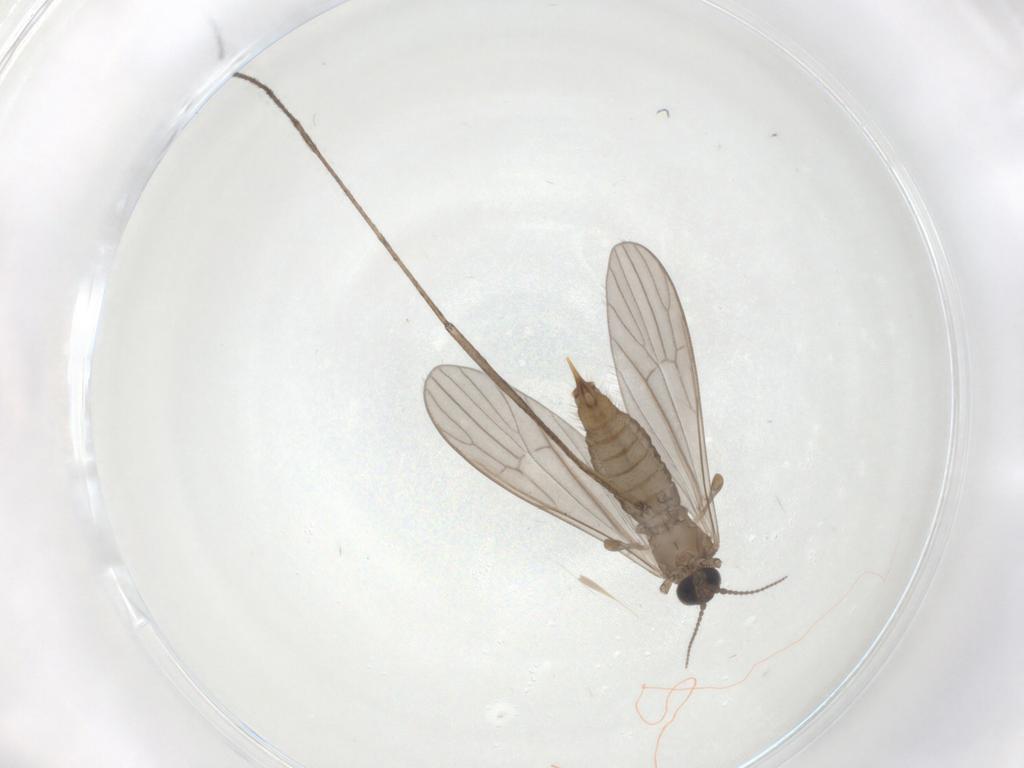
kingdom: Animalia
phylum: Arthropoda
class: Insecta
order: Diptera
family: Limoniidae
